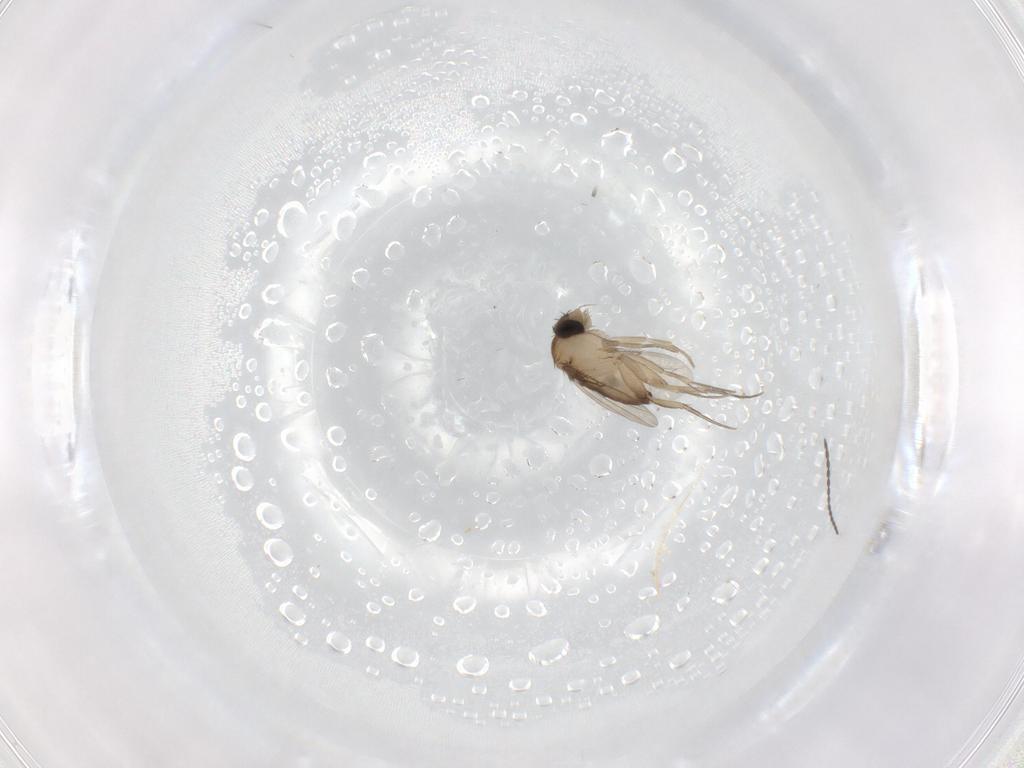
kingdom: Animalia
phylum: Arthropoda
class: Insecta
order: Diptera
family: Phoridae
